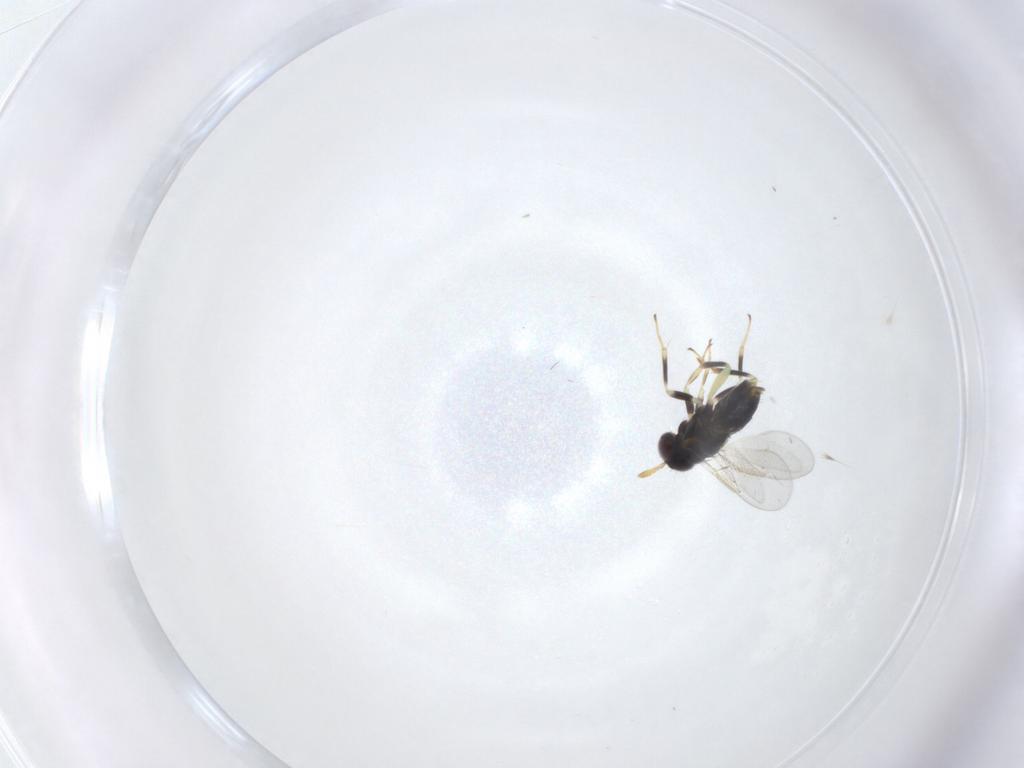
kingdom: Animalia
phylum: Arthropoda
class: Insecta
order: Hymenoptera
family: Aphelinidae
